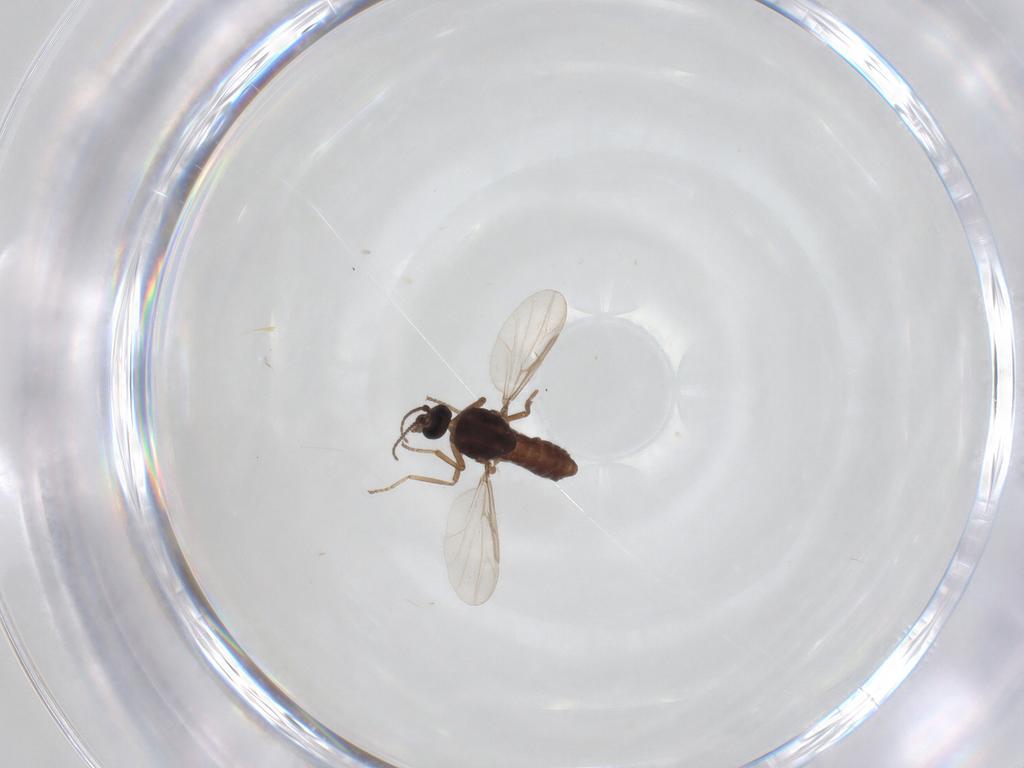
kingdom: Animalia
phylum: Arthropoda
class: Insecta
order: Diptera
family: Ceratopogonidae
